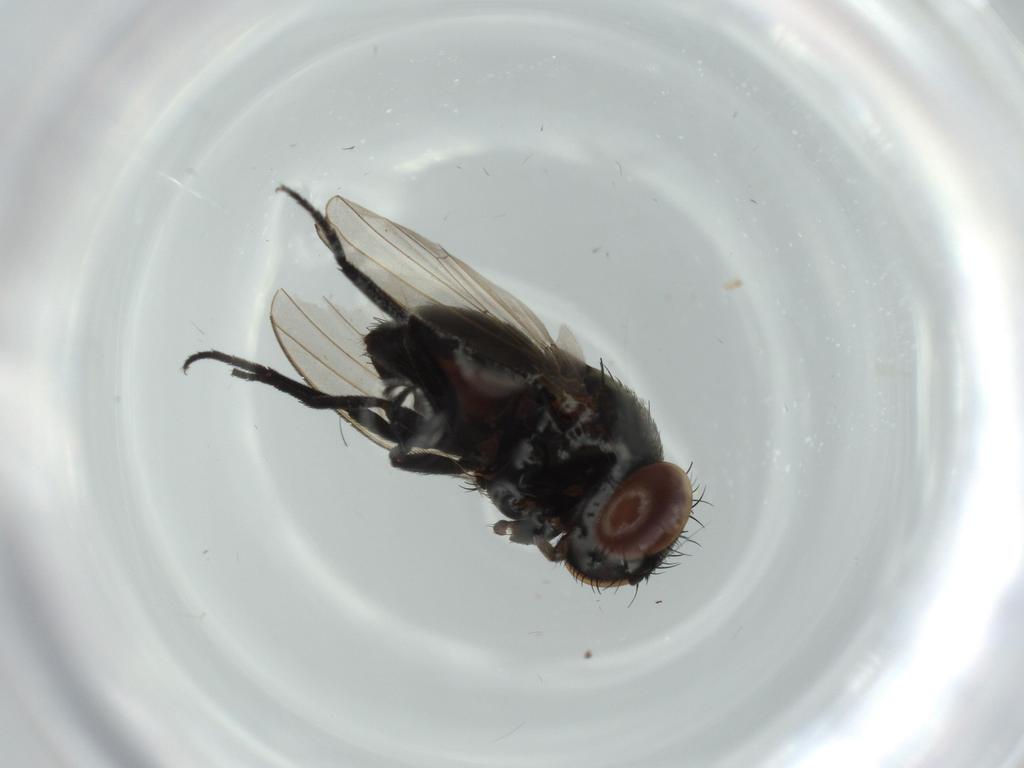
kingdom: Animalia
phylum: Arthropoda
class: Insecta
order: Diptera
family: Milichiidae
